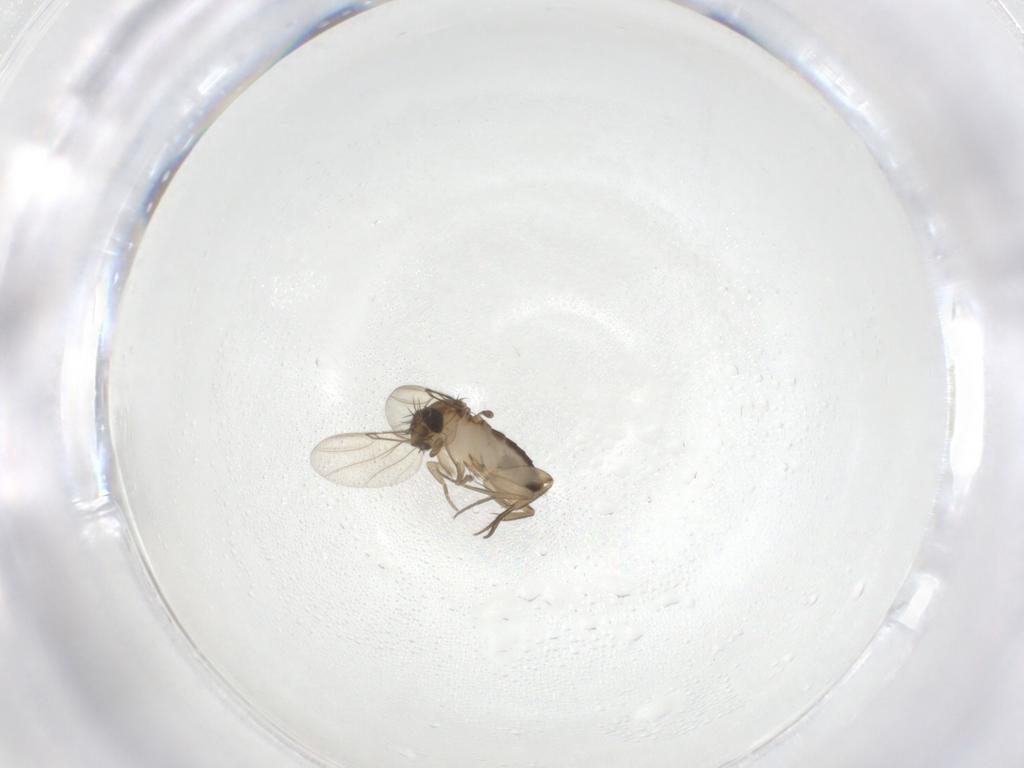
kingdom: Animalia
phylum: Arthropoda
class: Insecta
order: Diptera
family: Phoridae
